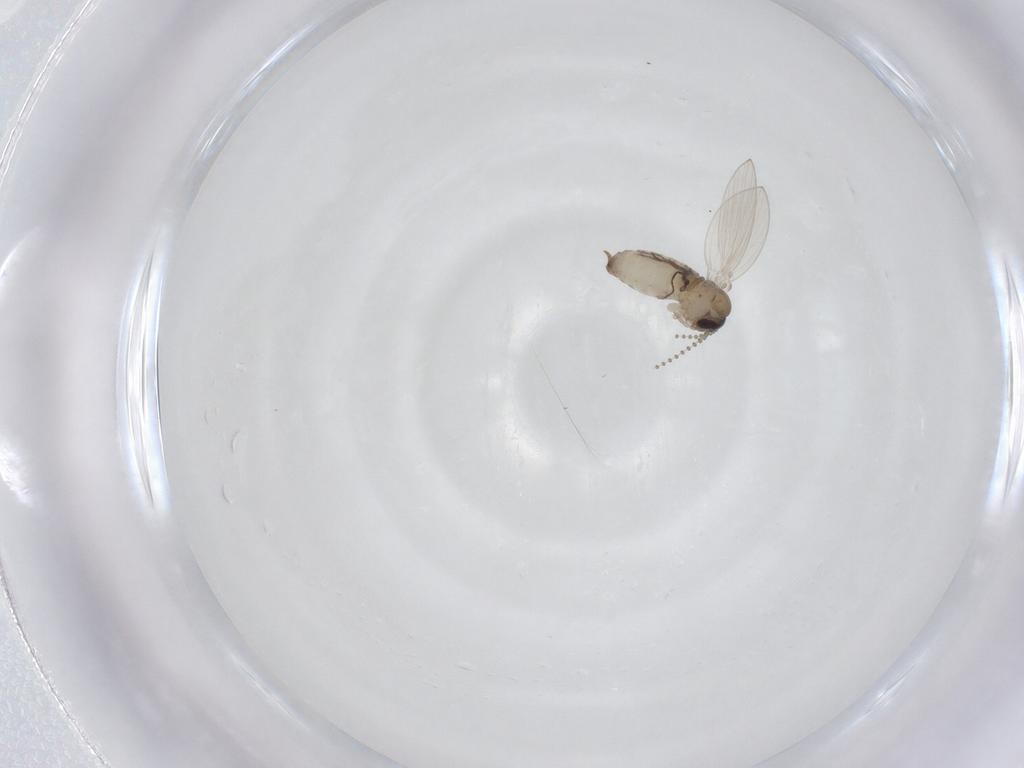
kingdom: Animalia
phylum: Arthropoda
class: Insecta
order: Diptera
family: Psychodidae
